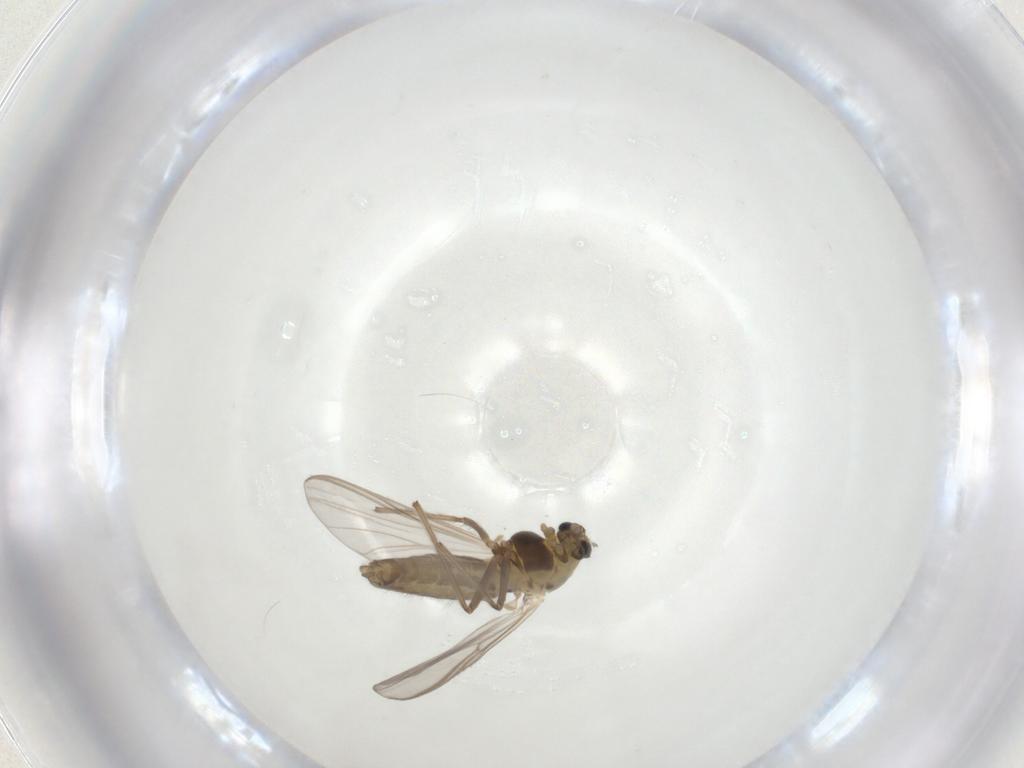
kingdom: Animalia
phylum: Arthropoda
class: Insecta
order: Diptera
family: Chironomidae
